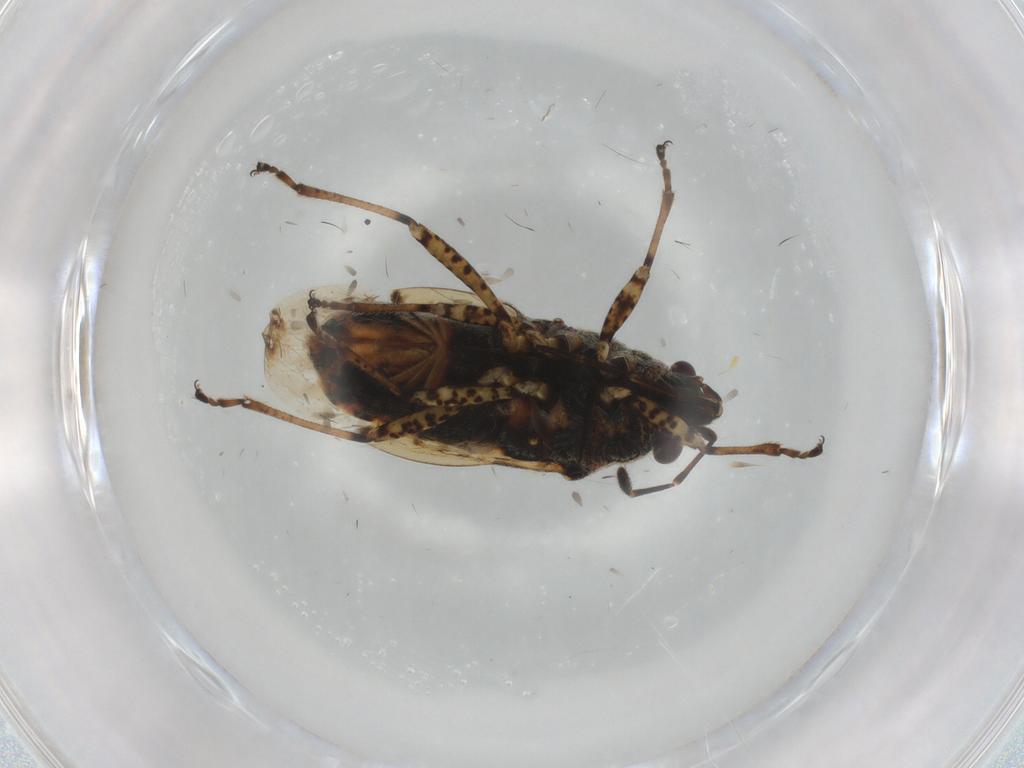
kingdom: Animalia
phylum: Arthropoda
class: Insecta
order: Hemiptera
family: Lygaeidae
